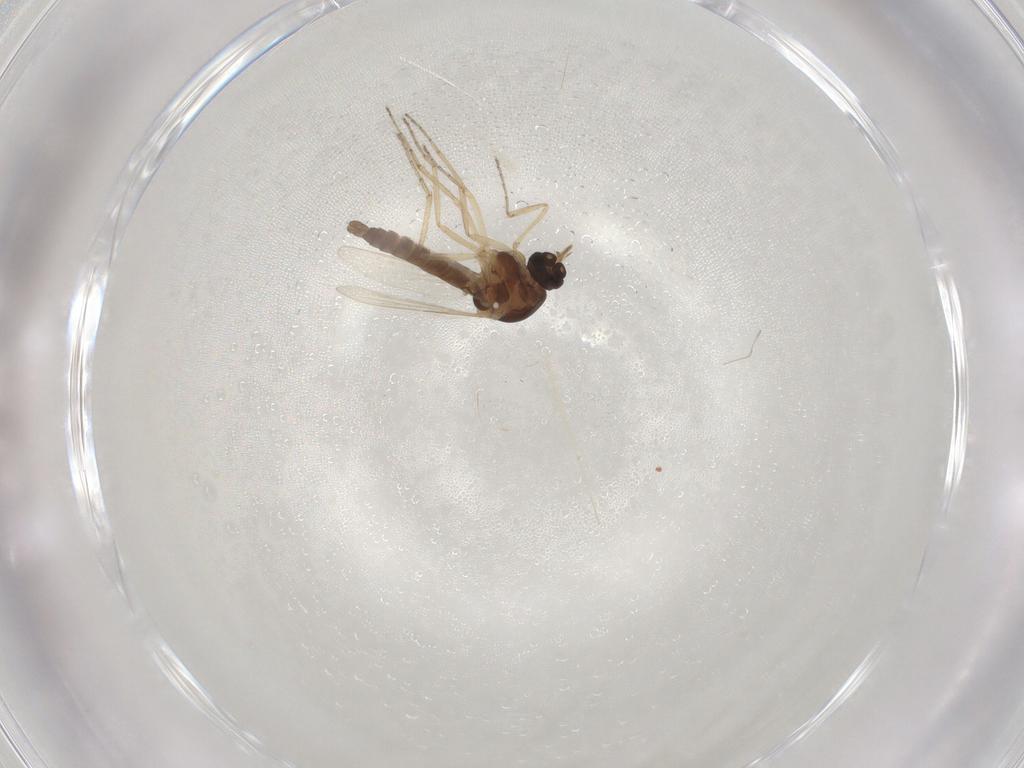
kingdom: Animalia
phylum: Arthropoda
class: Insecta
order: Diptera
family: Ceratopogonidae
